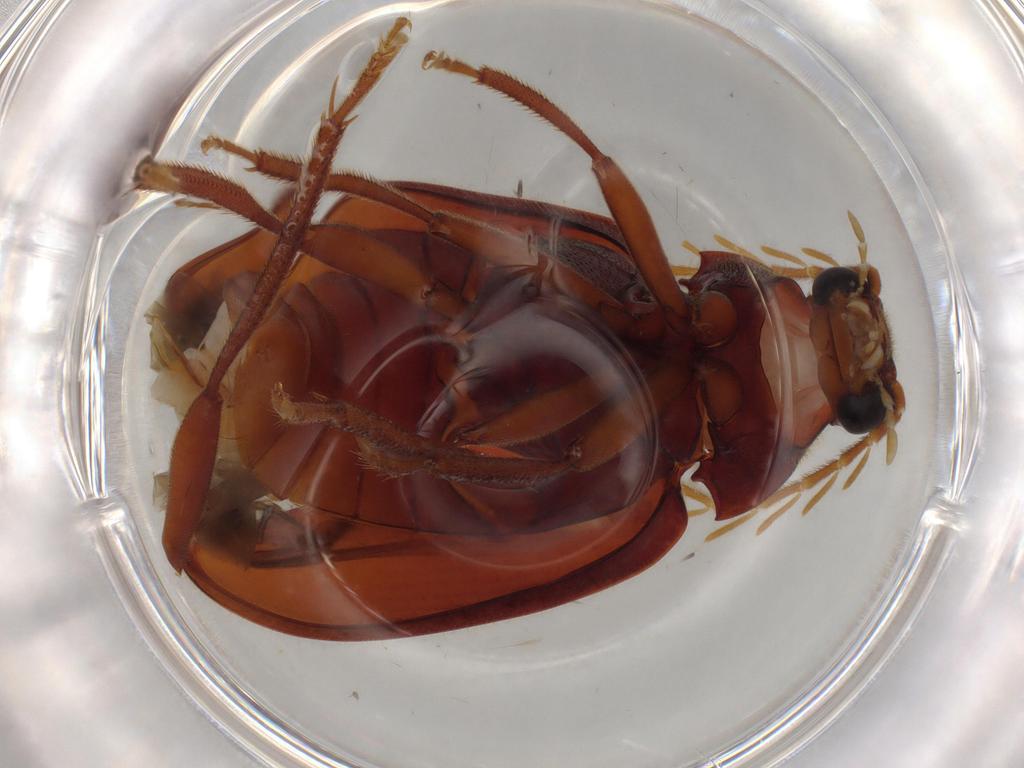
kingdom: Animalia
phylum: Arthropoda
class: Insecta
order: Coleoptera
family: Ptilodactylidae
